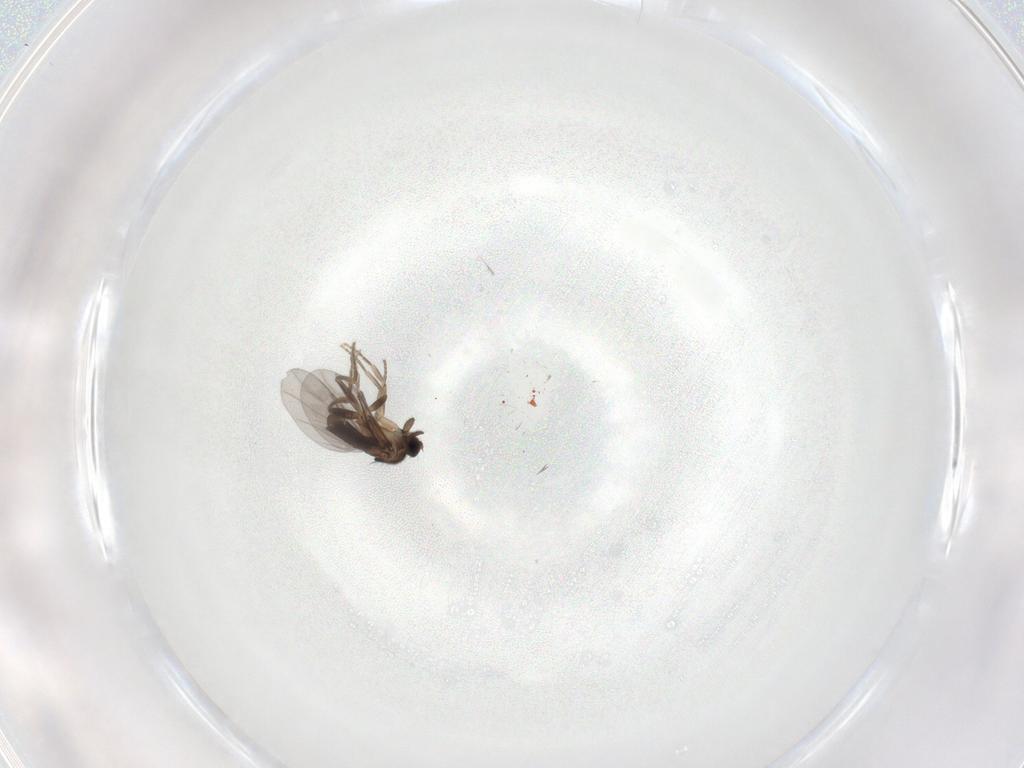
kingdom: Animalia
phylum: Arthropoda
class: Insecta
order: Diptera
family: Chironomidae
